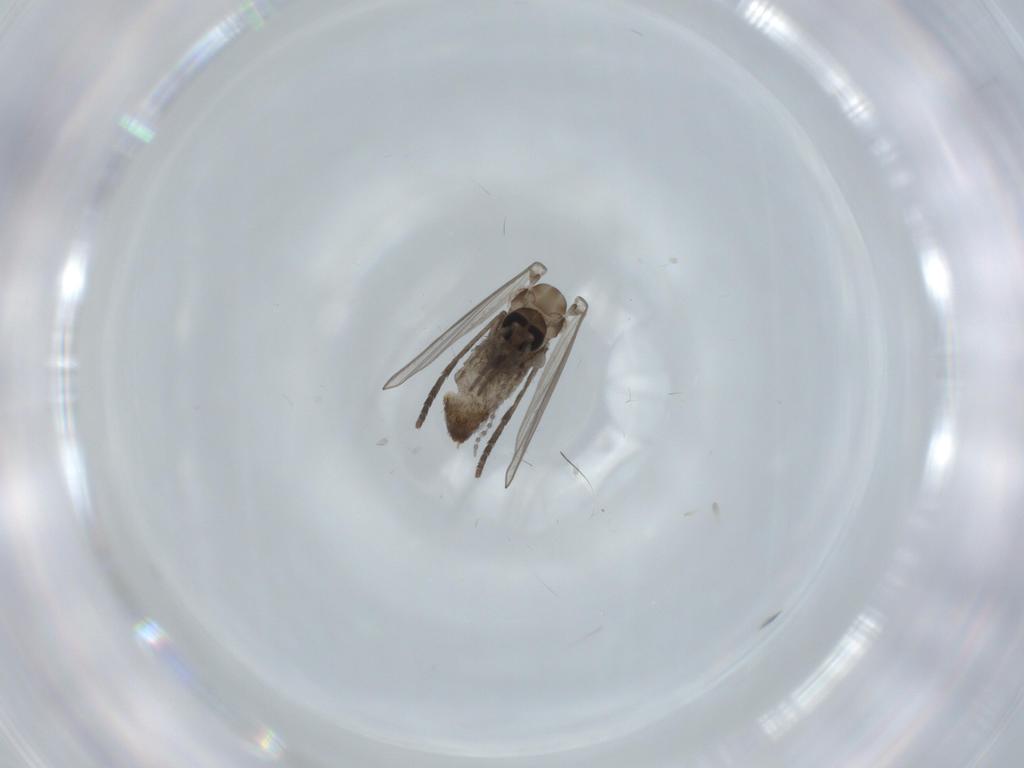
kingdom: Animalia
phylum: Arthropoda
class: Insecta
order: Diptera
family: Psychodidae
